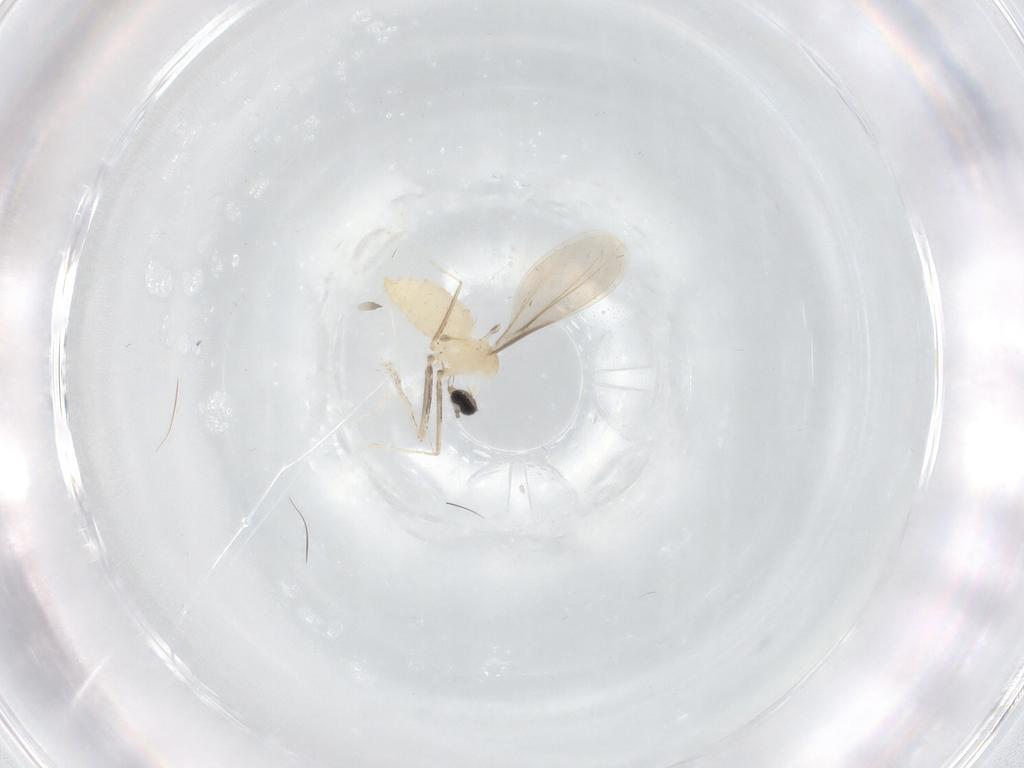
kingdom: Animalia
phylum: Arthropoda
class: Insecta
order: Diptera
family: Cecidomyiidae
